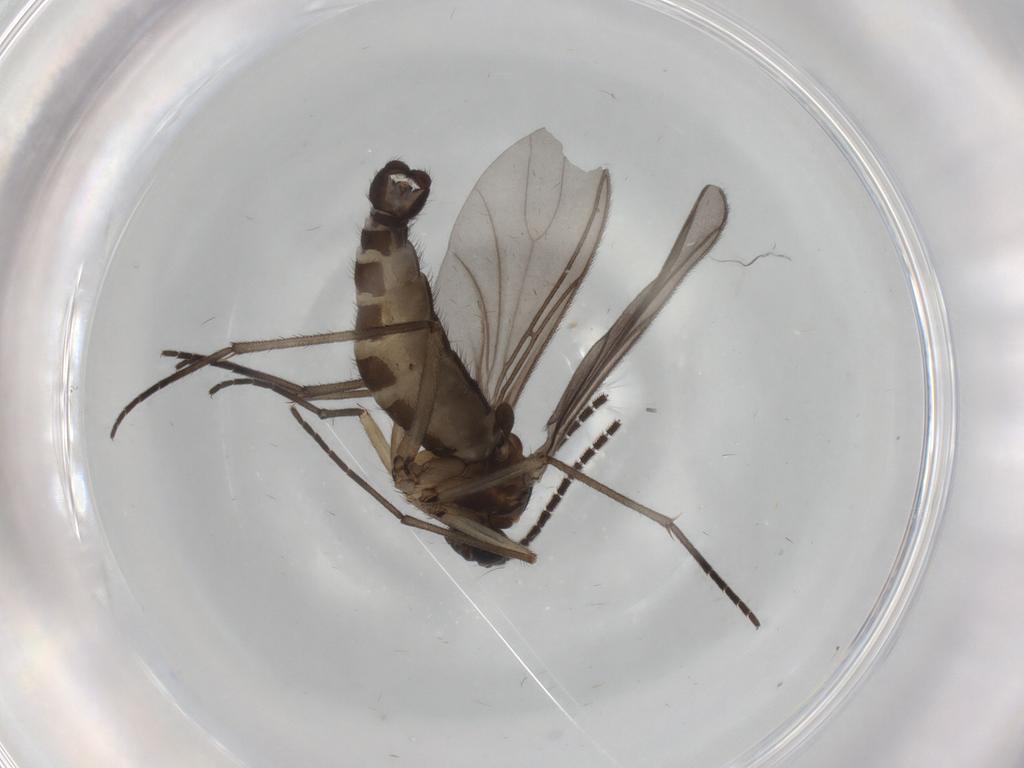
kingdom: Animalia
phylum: Arthropoda
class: Insecta
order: Diptera
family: Sciaridae
